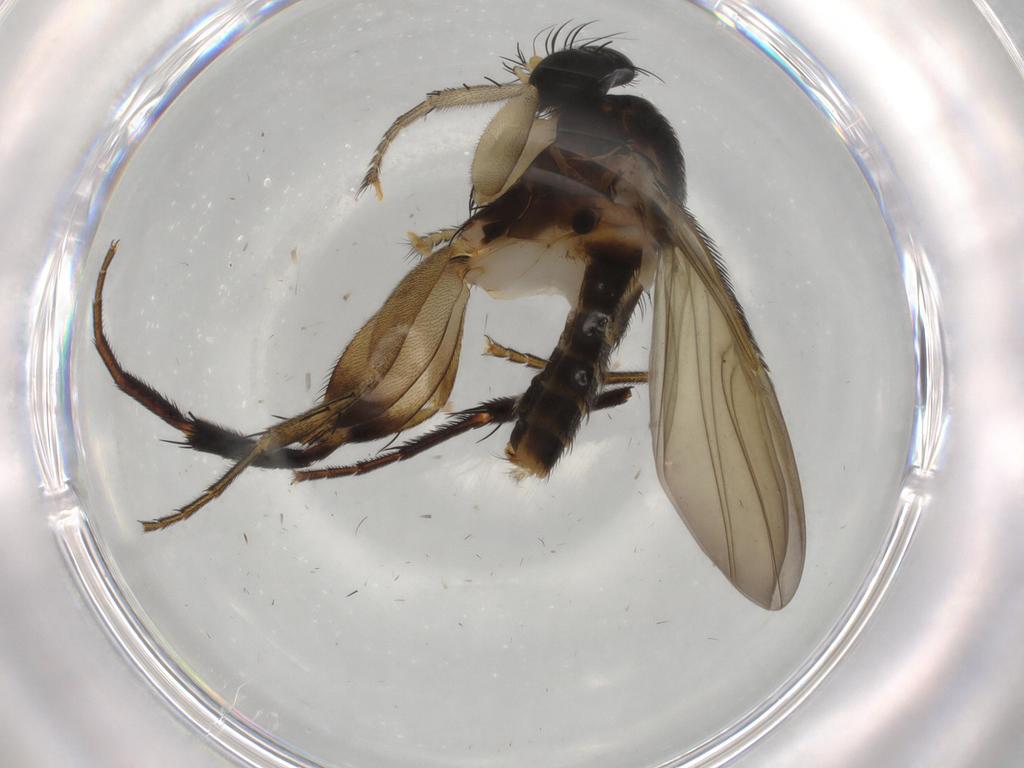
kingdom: Animalia
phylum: Arthropoda
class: Insecta
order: Diptera
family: Phoridae
